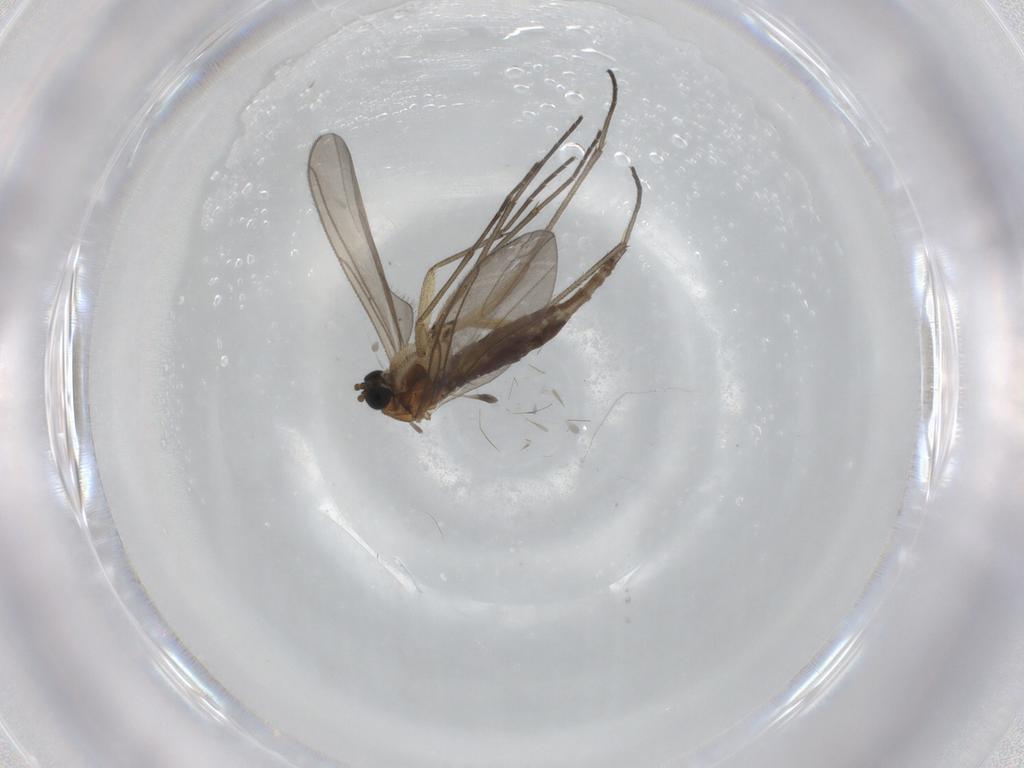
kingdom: Animalia
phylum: Arthropoda
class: Insecta
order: Diptera
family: Sciaridae
